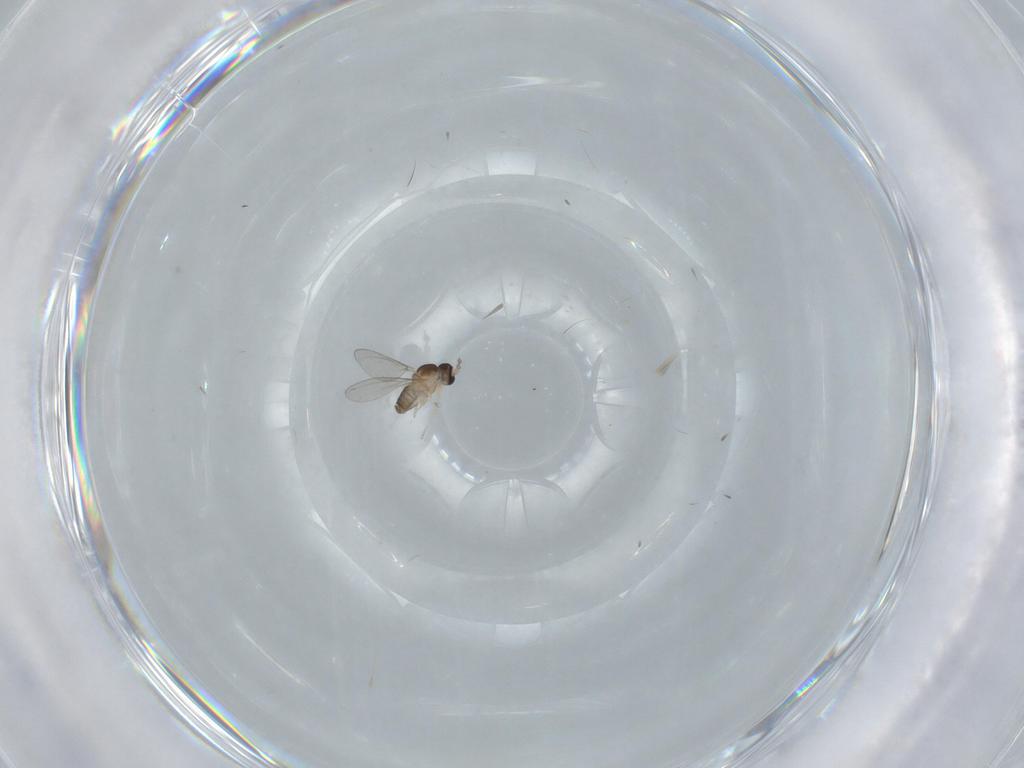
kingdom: Animalia
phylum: Arthropoda
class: Insecta
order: Diptera
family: Cecidomyiidae
